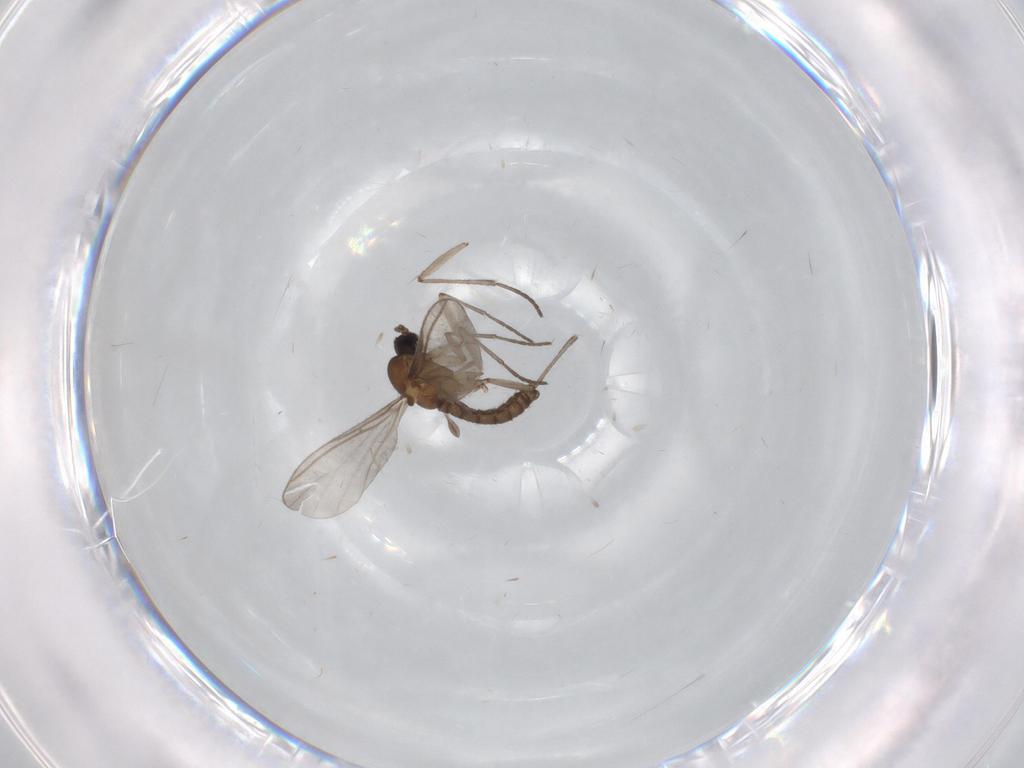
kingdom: Animalia
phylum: Arthropoda
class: Insecta
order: Diptera
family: Sciaridae
